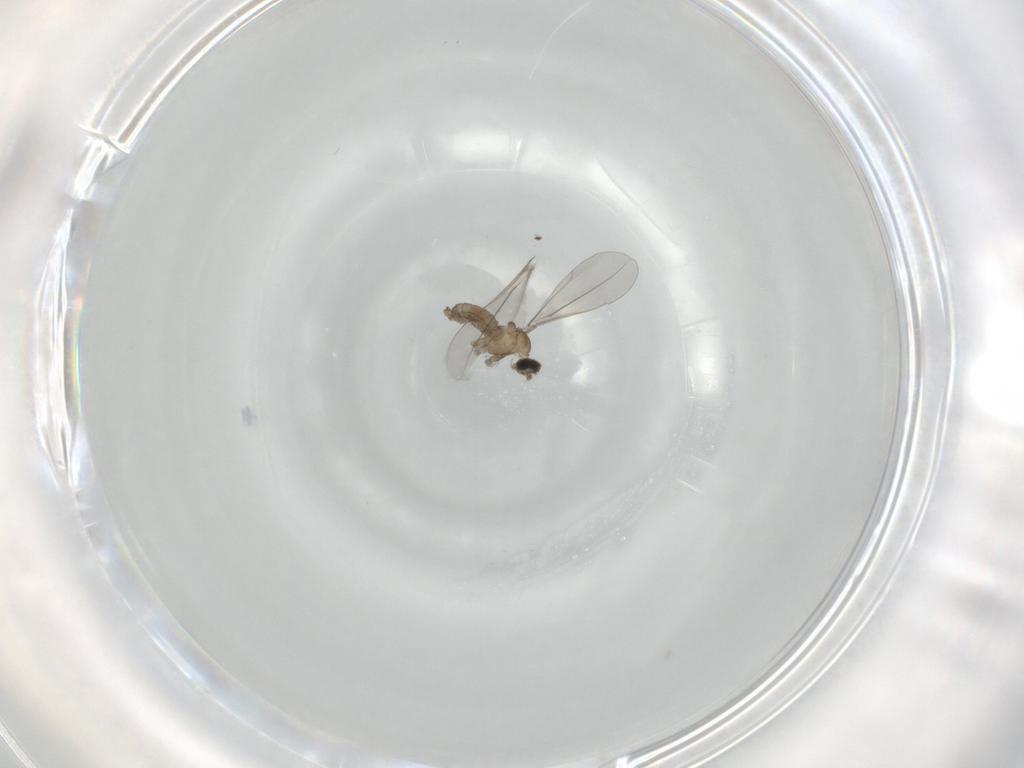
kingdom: Animalia
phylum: Arthropoda
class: Insecta
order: Diptera
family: Cecidomyiidae
